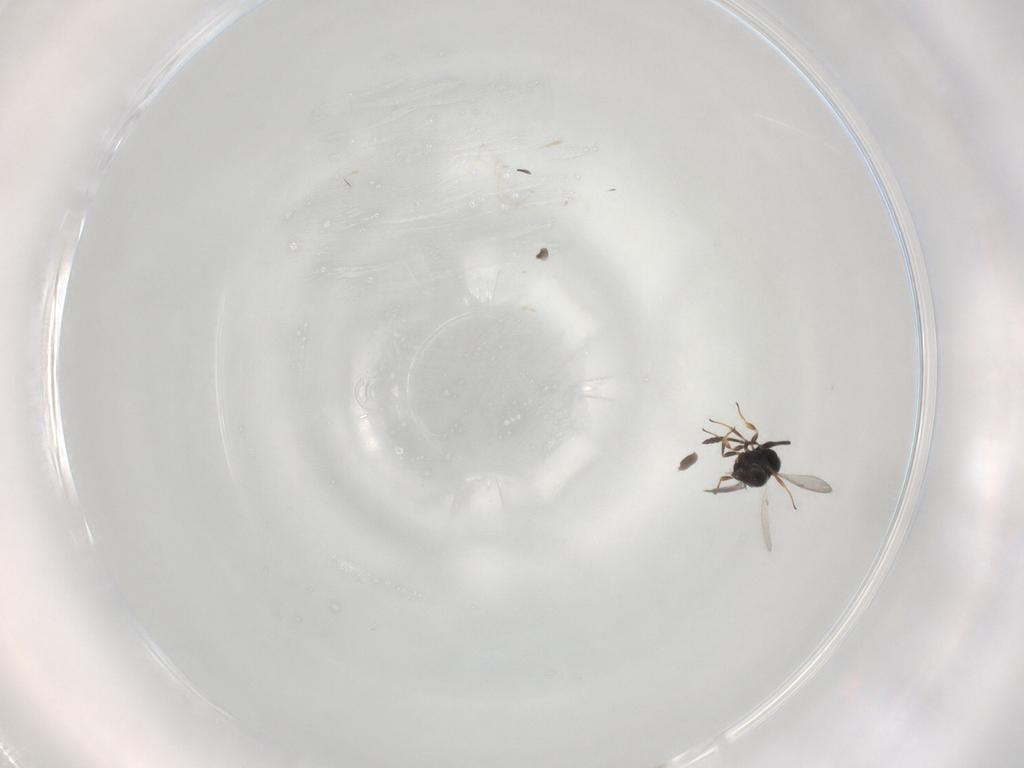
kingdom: Animalia
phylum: Arthropoda
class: Insecta
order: Hymenoptera
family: Scelionidae
